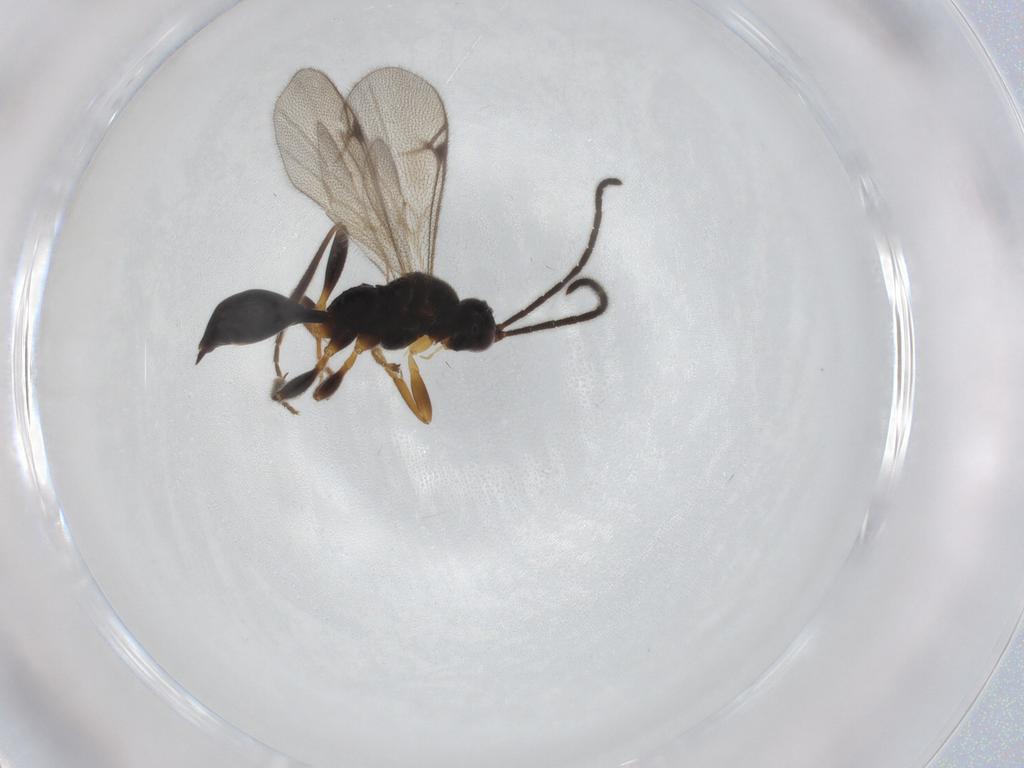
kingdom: Animalia
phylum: Arthropoda
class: Insecta
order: Hymenoptera
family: Proctotrupidae
